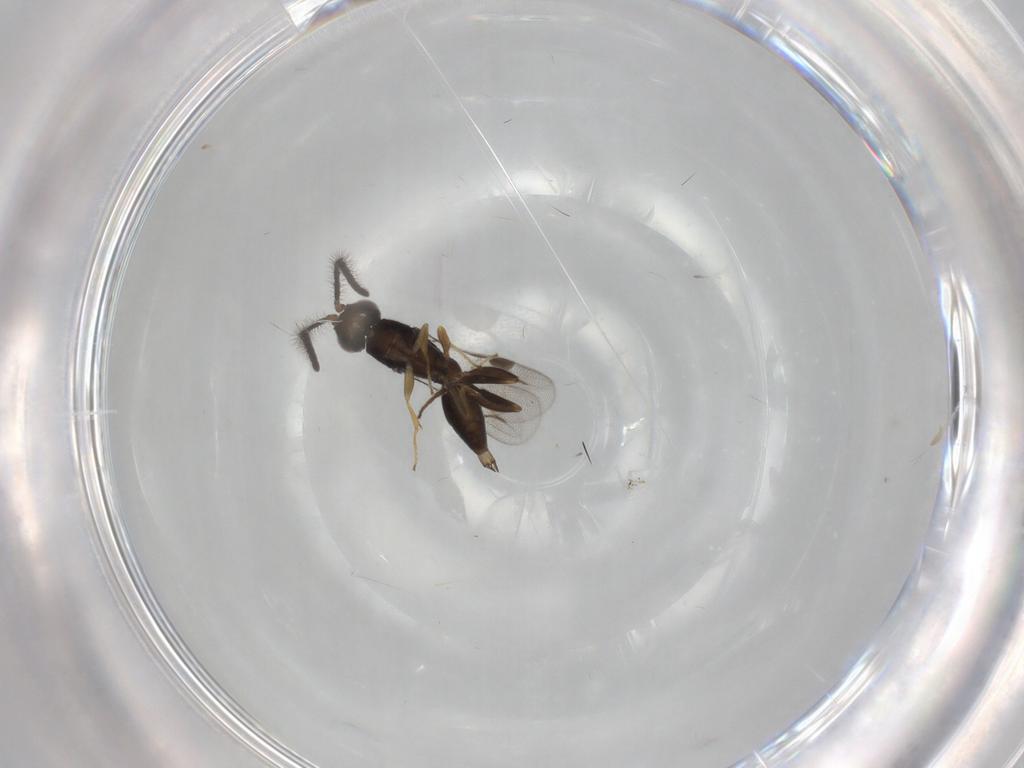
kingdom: Animalia
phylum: Arthropoda
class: Insecta
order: Hymenoptera
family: Megaspilidae
